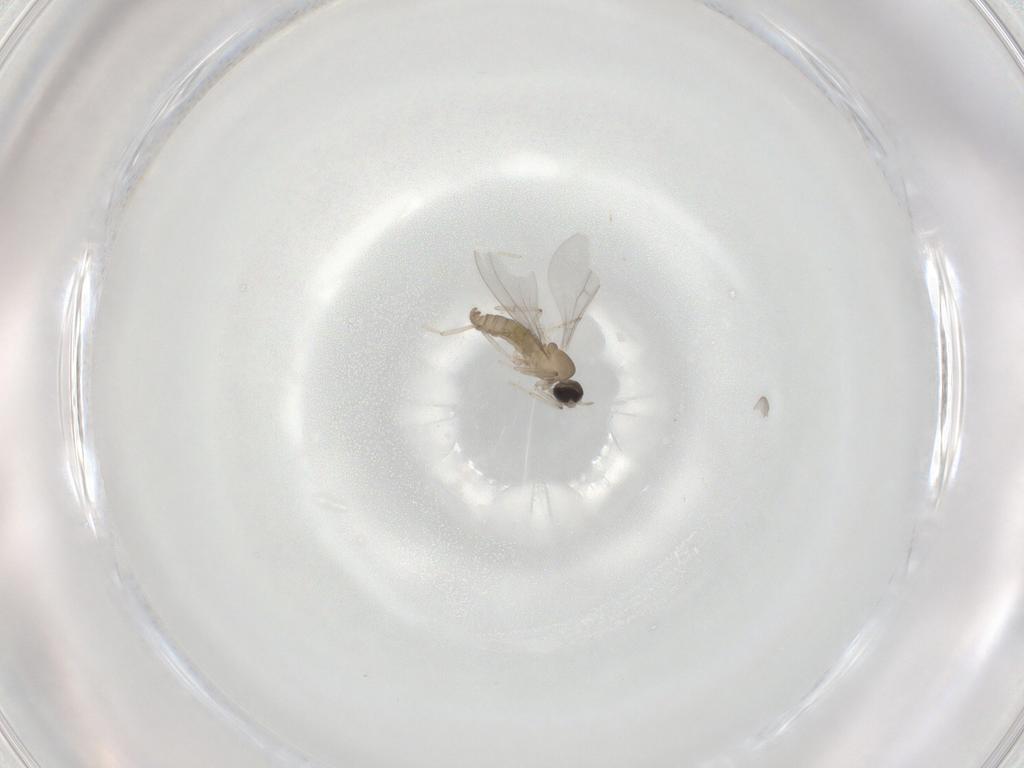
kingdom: Animalia
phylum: Arthropoda
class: Insecta
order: Diptera
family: Cecidomyiidae
